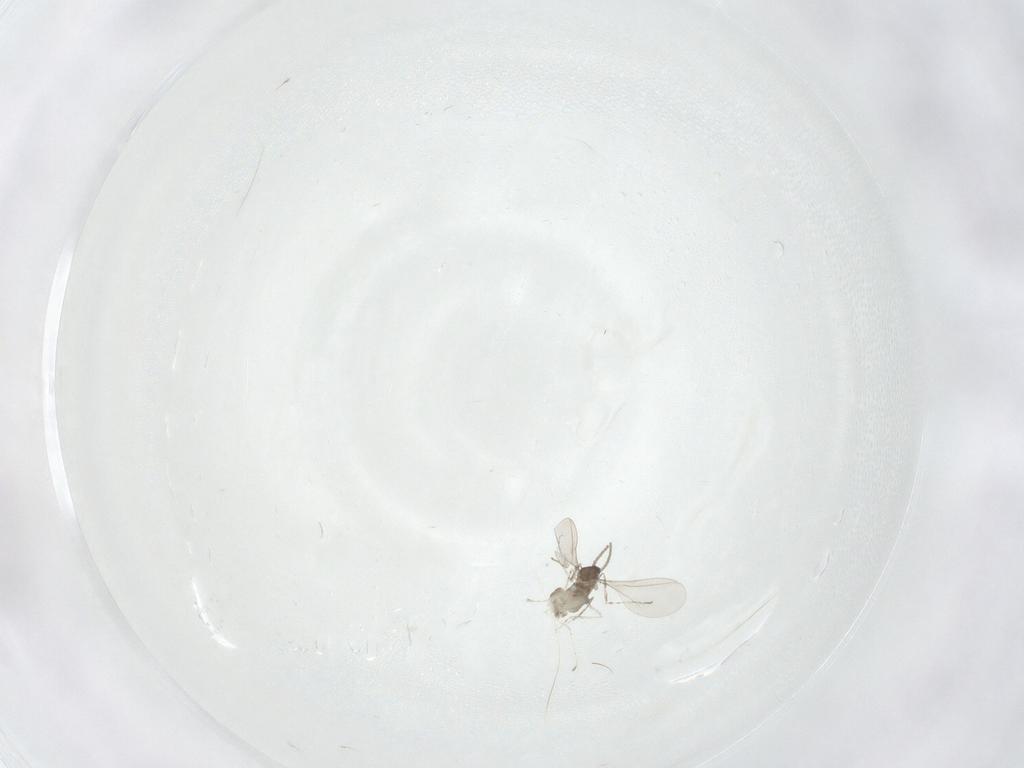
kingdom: Animalia
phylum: Arthropoda
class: Insecta
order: Diptera
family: Cecidomyiidae
